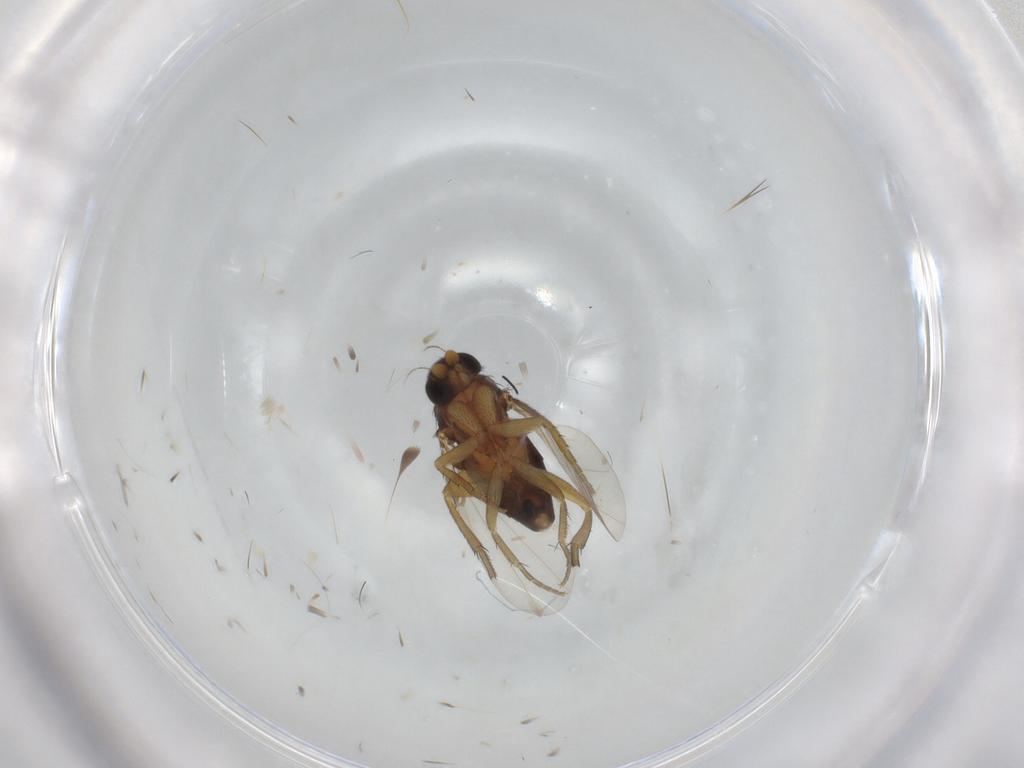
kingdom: Animalia
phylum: Arthropoda
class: Insecta
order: Diptera
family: Phoridae
